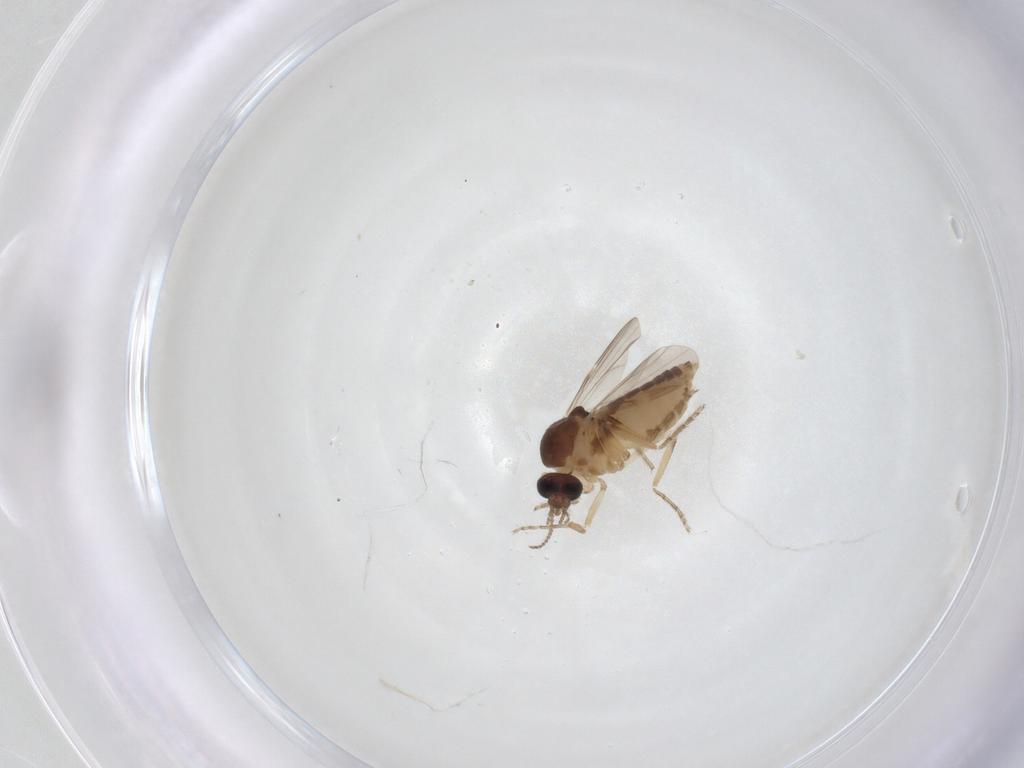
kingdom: Animalia
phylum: Arthropoda
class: Insecta
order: Diptera
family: Ceratopogonidae
